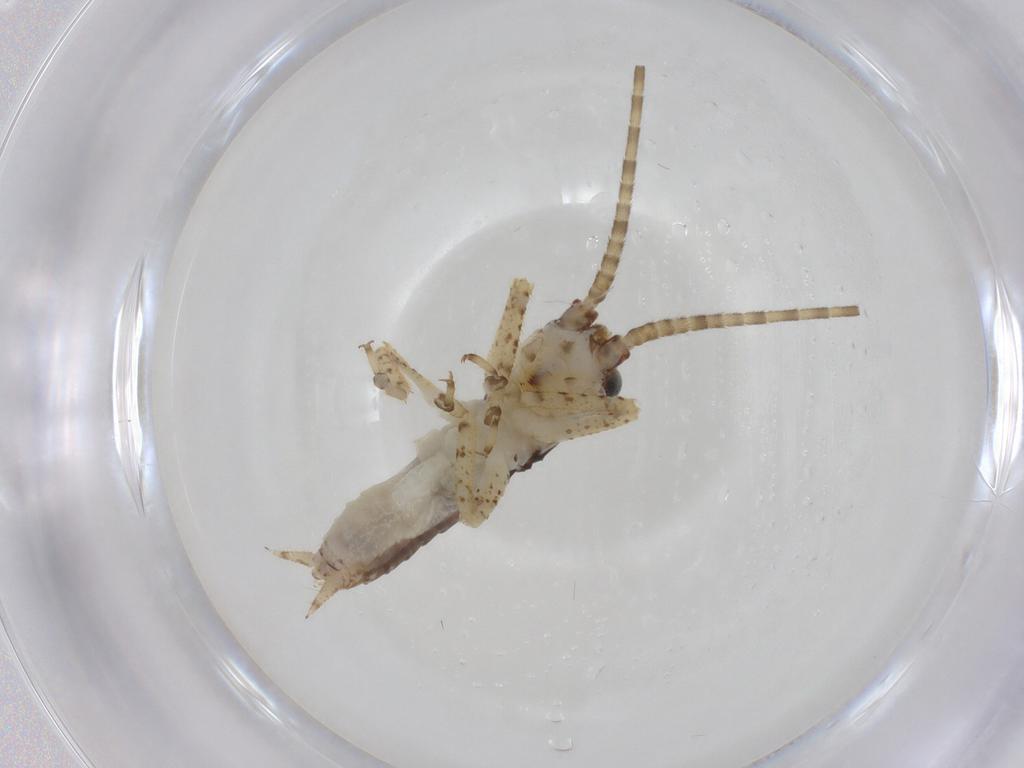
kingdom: Animalia
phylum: Arthropoda
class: Insecta
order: Orthoptera
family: Gryllidae
